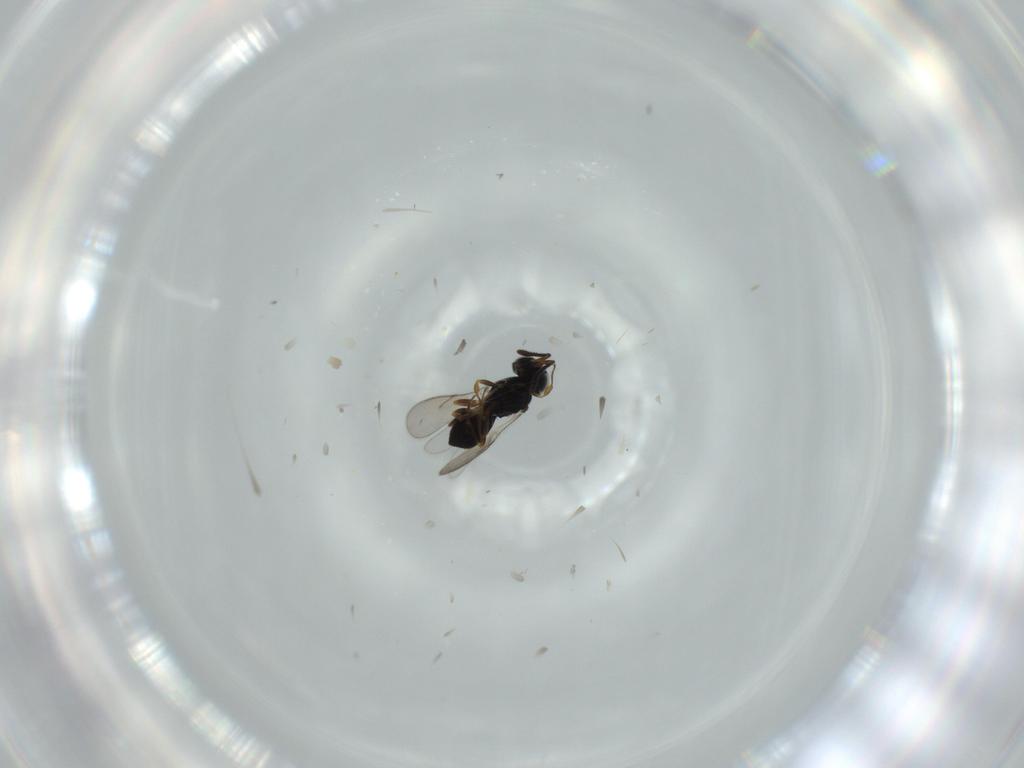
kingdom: Animalia
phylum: Arthropoda
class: Insecta
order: Hymenoptera
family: Scelionidae
